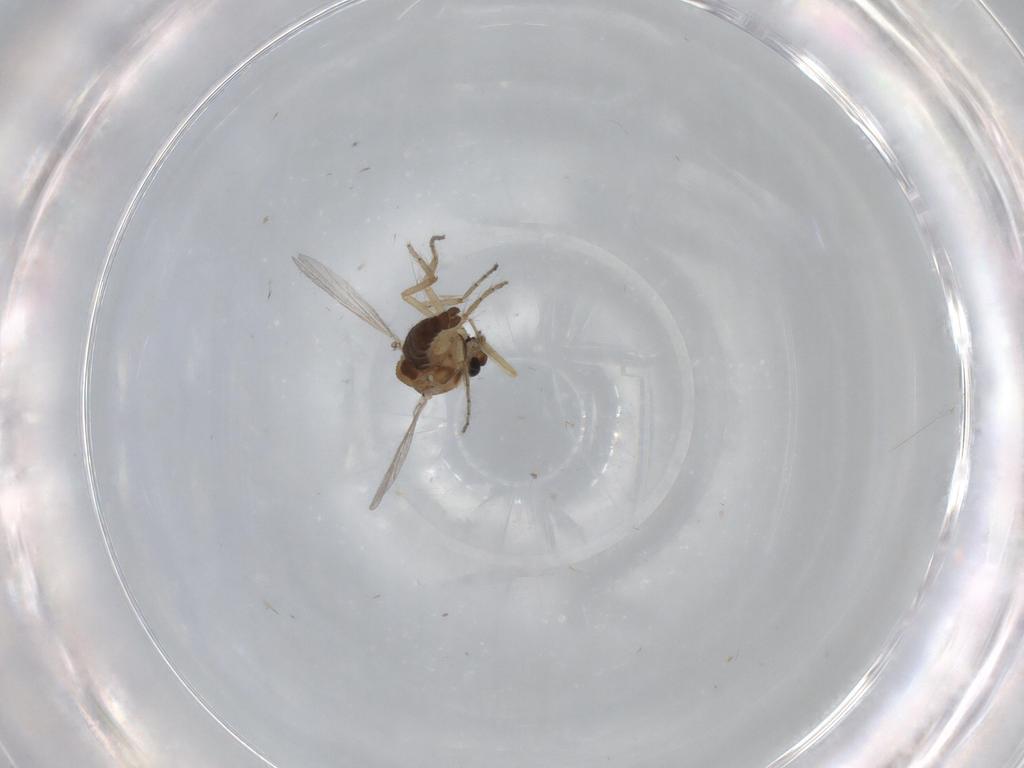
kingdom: Animalia
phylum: Arthropoda
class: Insecta
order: Diptera
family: Ceratopogonidae
